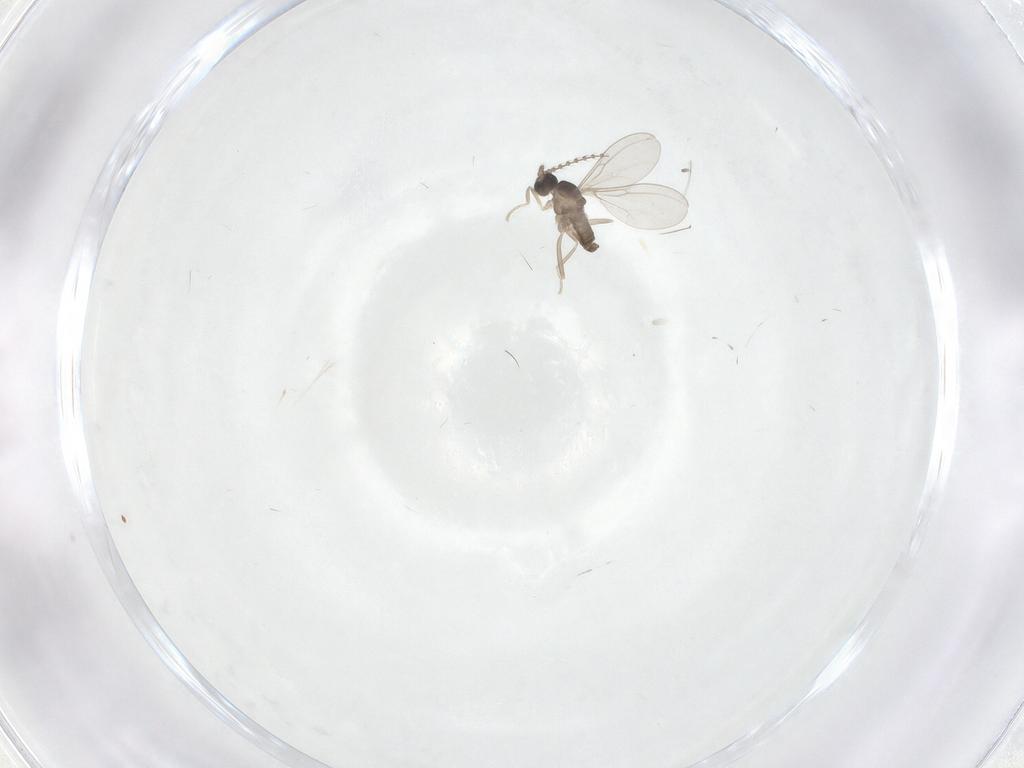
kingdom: Animalia
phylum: Arthropoda
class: Insecta
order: Diptera
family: Cecidomyiidae
